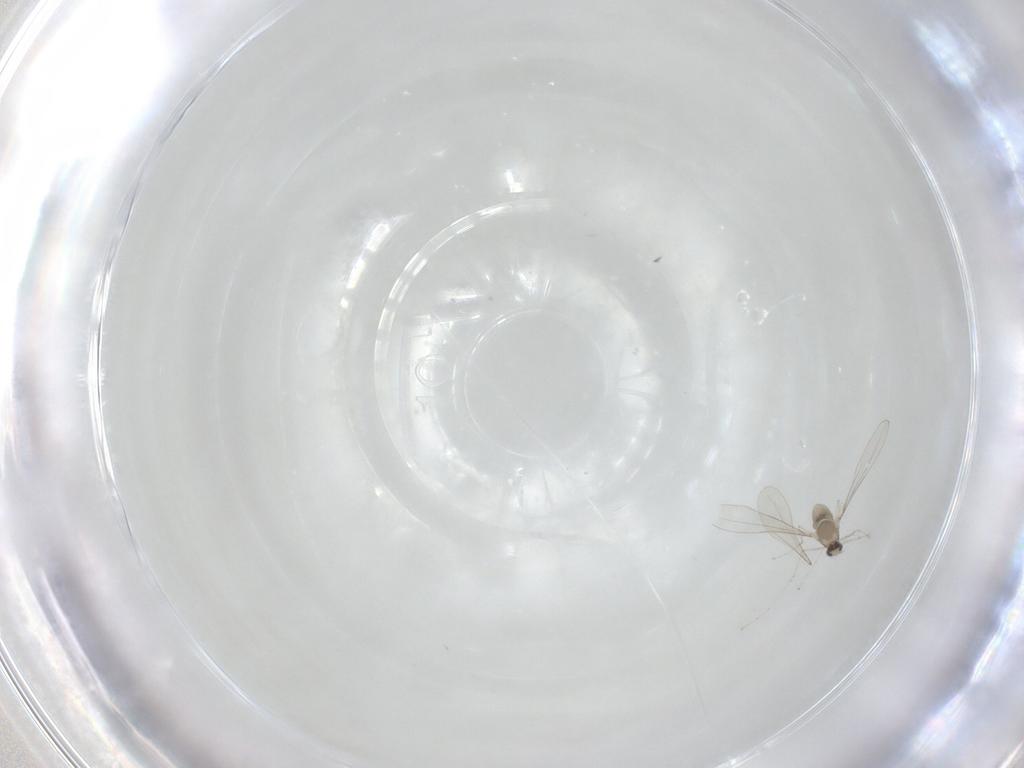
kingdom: Animalia
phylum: Arthropoda
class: Insecta
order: Diptera
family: Cecidomyiidae
